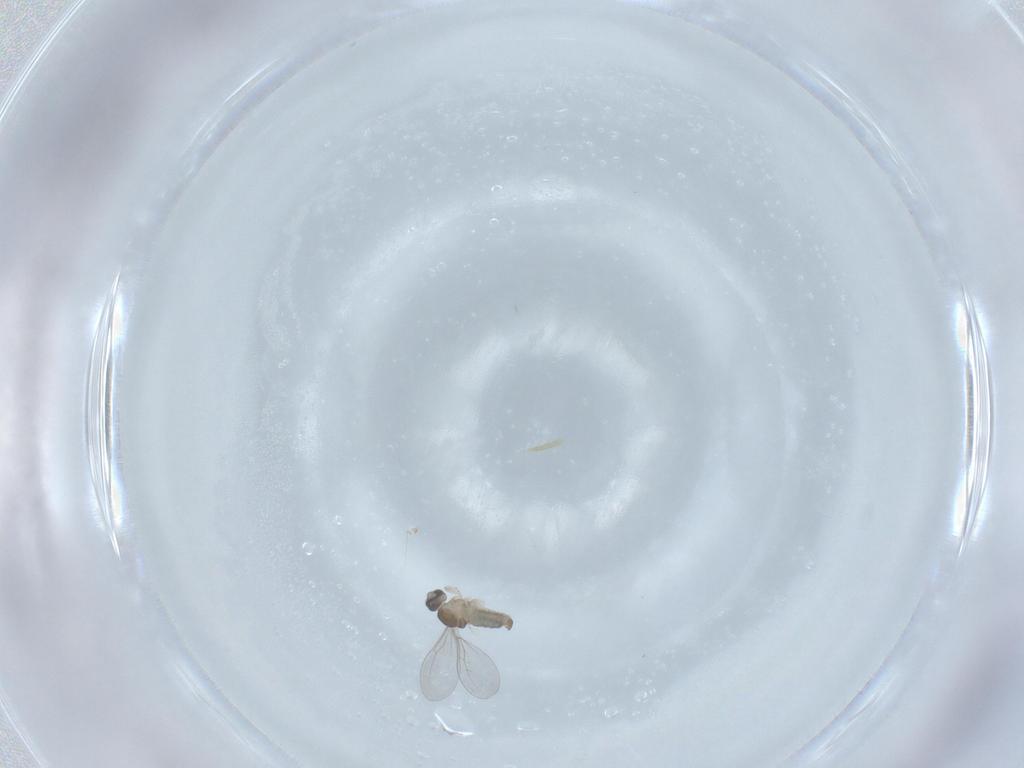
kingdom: Animalia
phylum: Arthropoda
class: Insecta
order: Diptera
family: Cecidomyiidae
